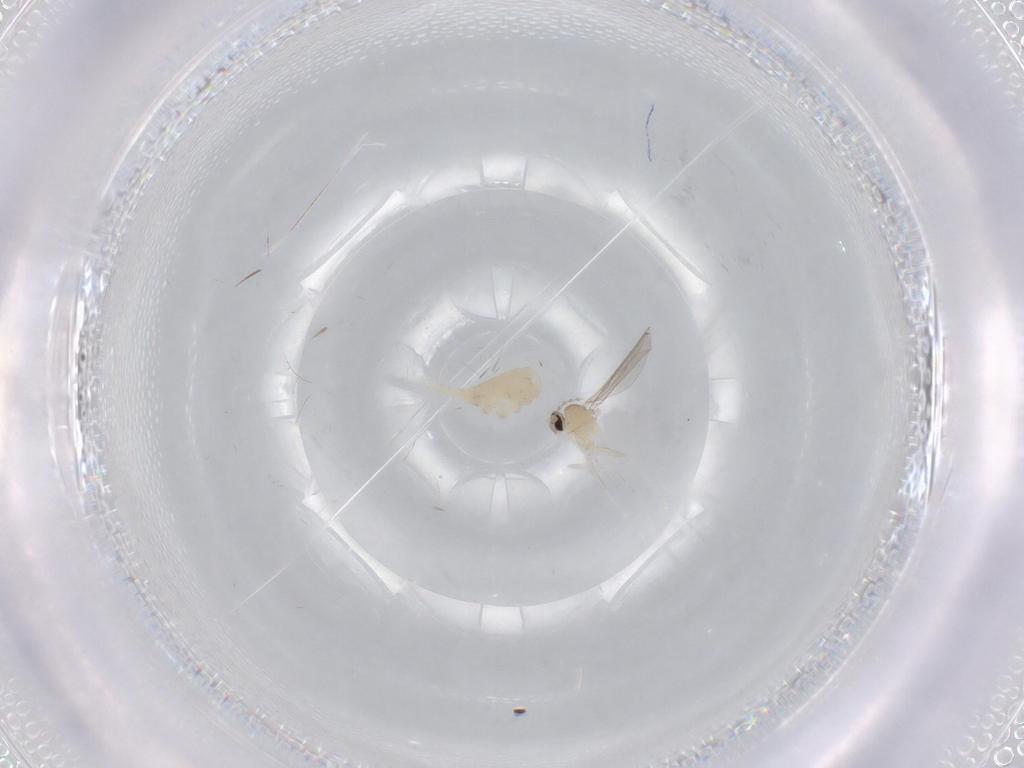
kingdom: Animalia
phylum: Arthropoda
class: Insecta
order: Diptera
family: Cecidomyiidae
